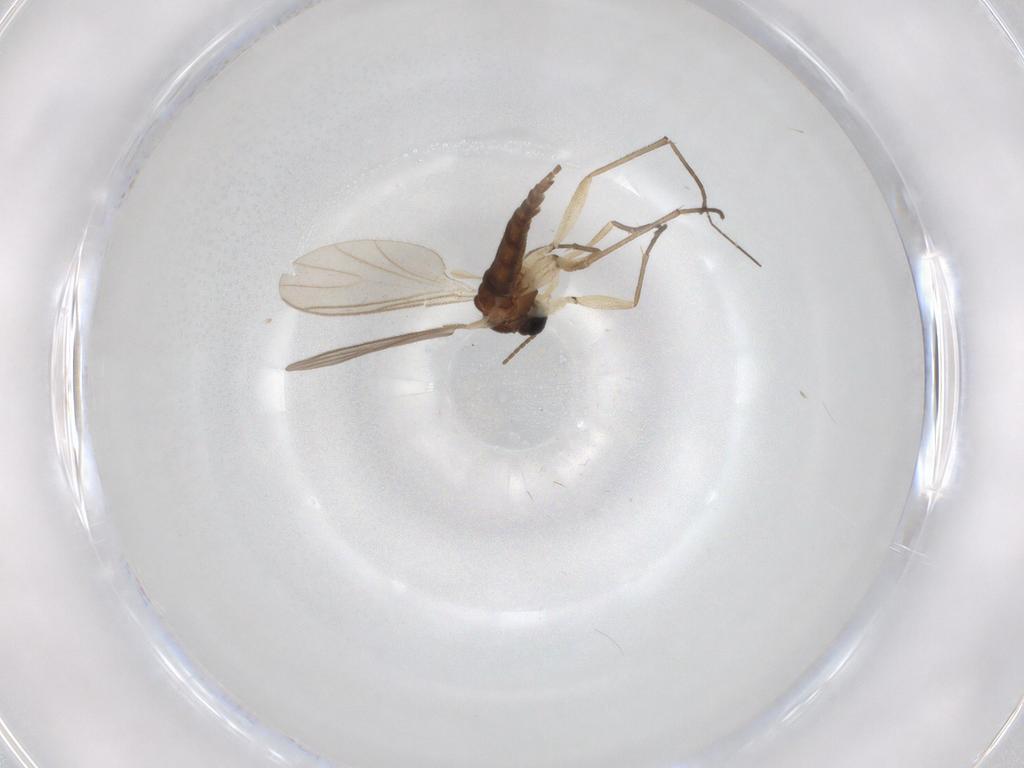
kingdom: Animalia
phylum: Arthropoda
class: Insecta
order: Diptera
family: Sciaridae
